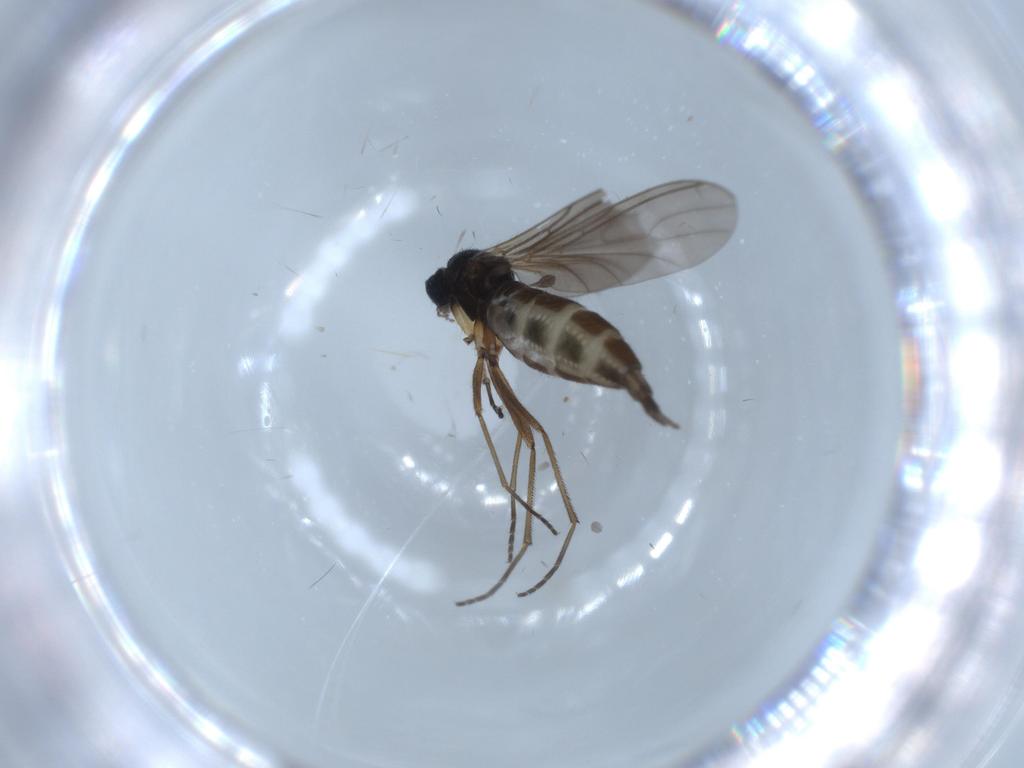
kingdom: Animalia
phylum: Arthropoda
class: Insecta
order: Diptera
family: Sciaridae
